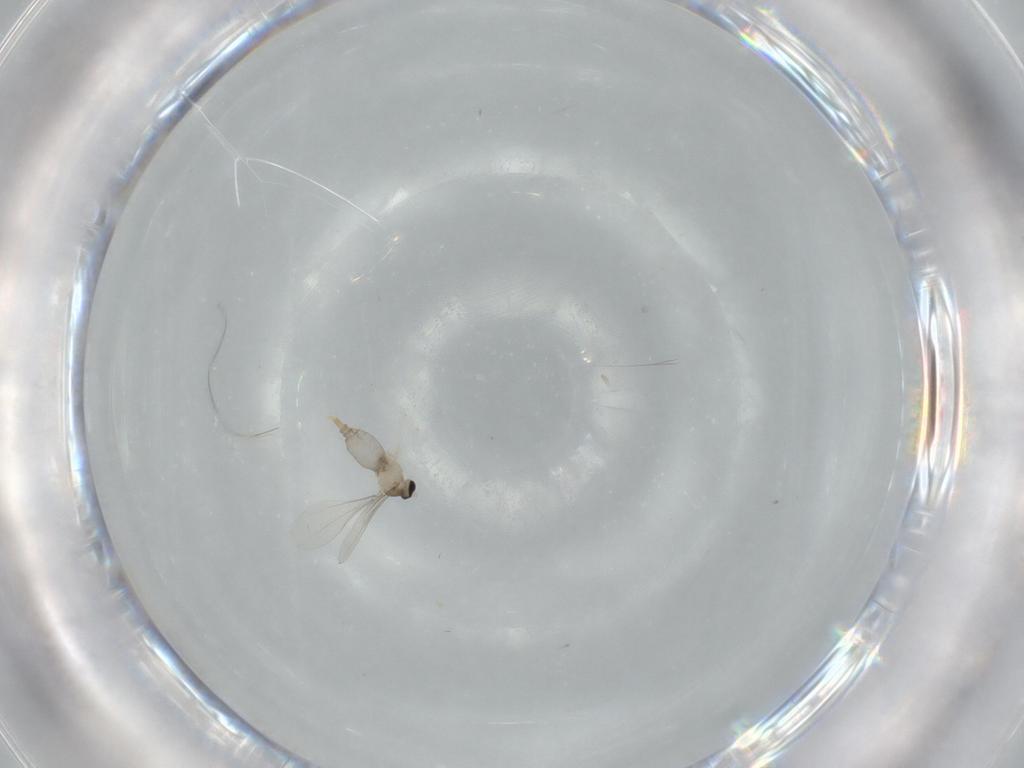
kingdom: Animalia
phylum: Arthropoda
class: Insecta
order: Diptera
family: Cecidomyiidae
